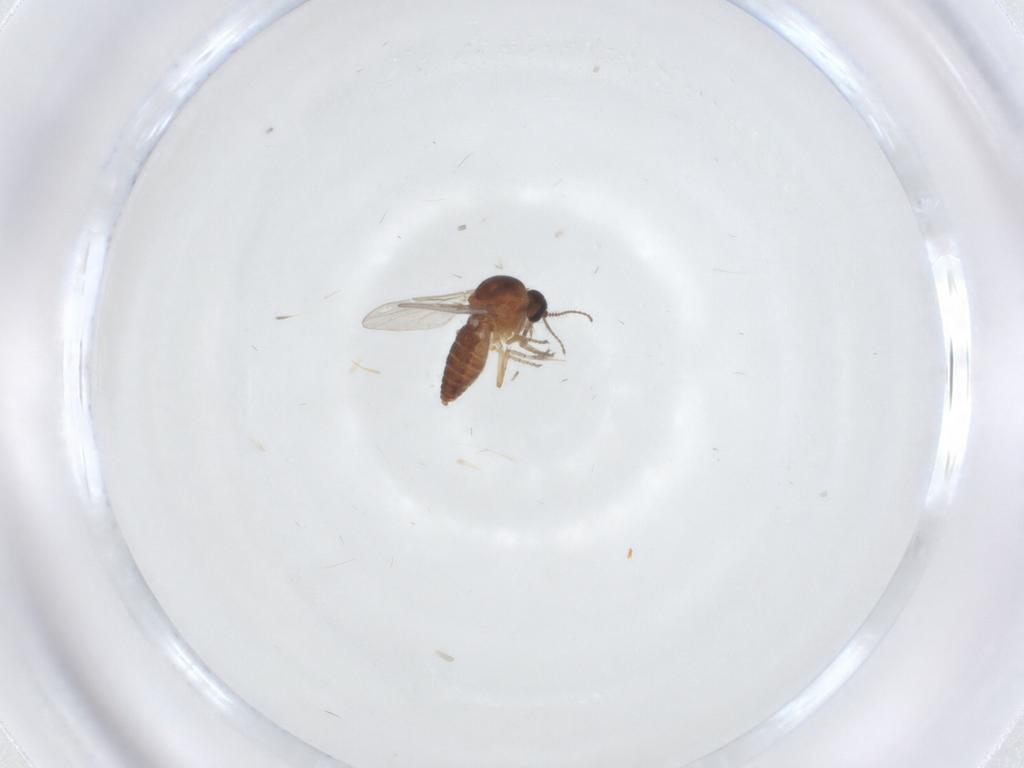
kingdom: Animalia
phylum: Arthropoda
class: Insecta
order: Diptera
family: Ceratopogonidae
